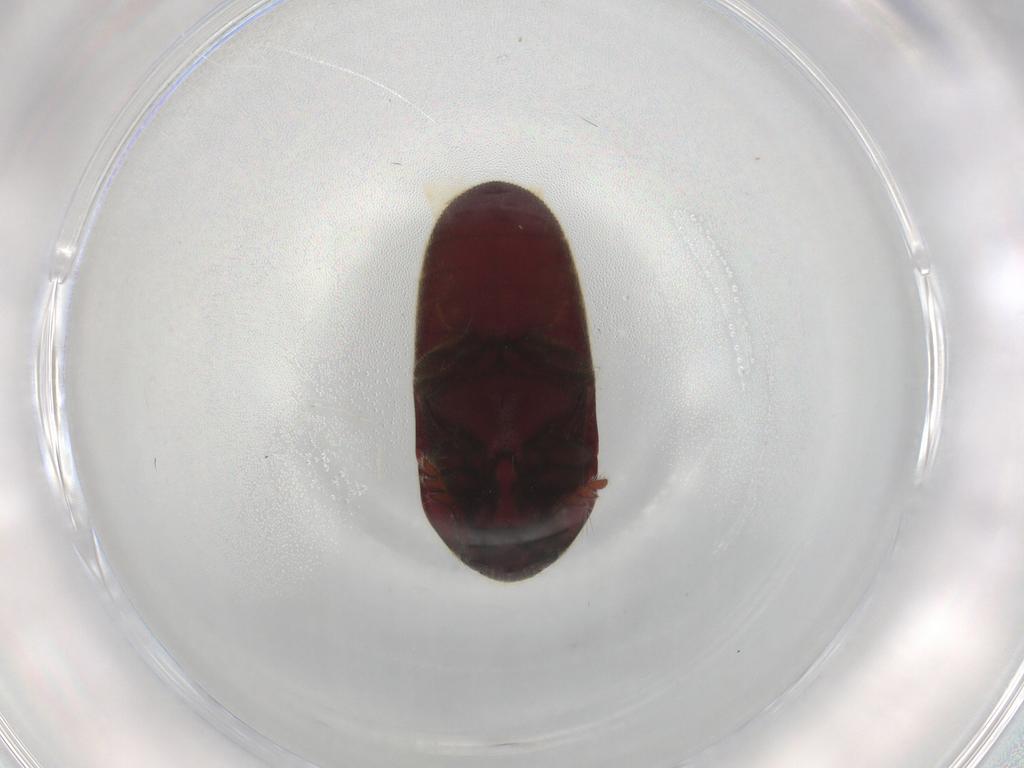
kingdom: Animalia
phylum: Arthropoda
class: Insecta
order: Coleoptera
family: Throscidae
